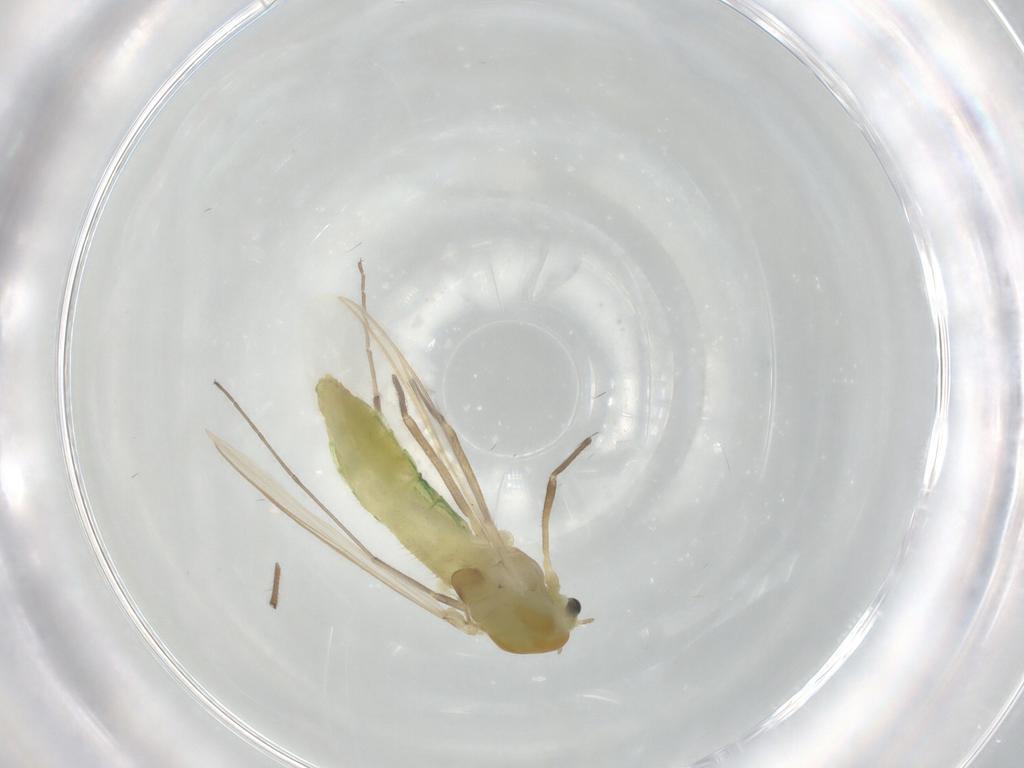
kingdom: Animalia
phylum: Arthropoda
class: Insecta
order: Diptera
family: Anthomyiidae
